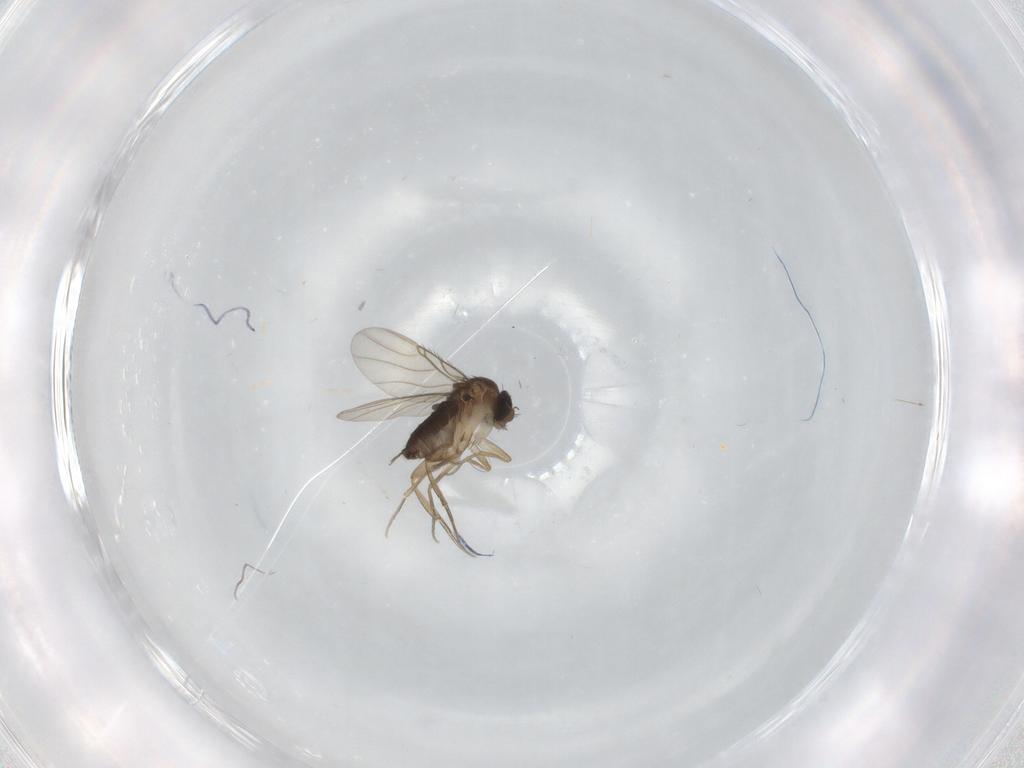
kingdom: Animalia
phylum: Arthropoda
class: Insecta
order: Diptera
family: Phoridae
